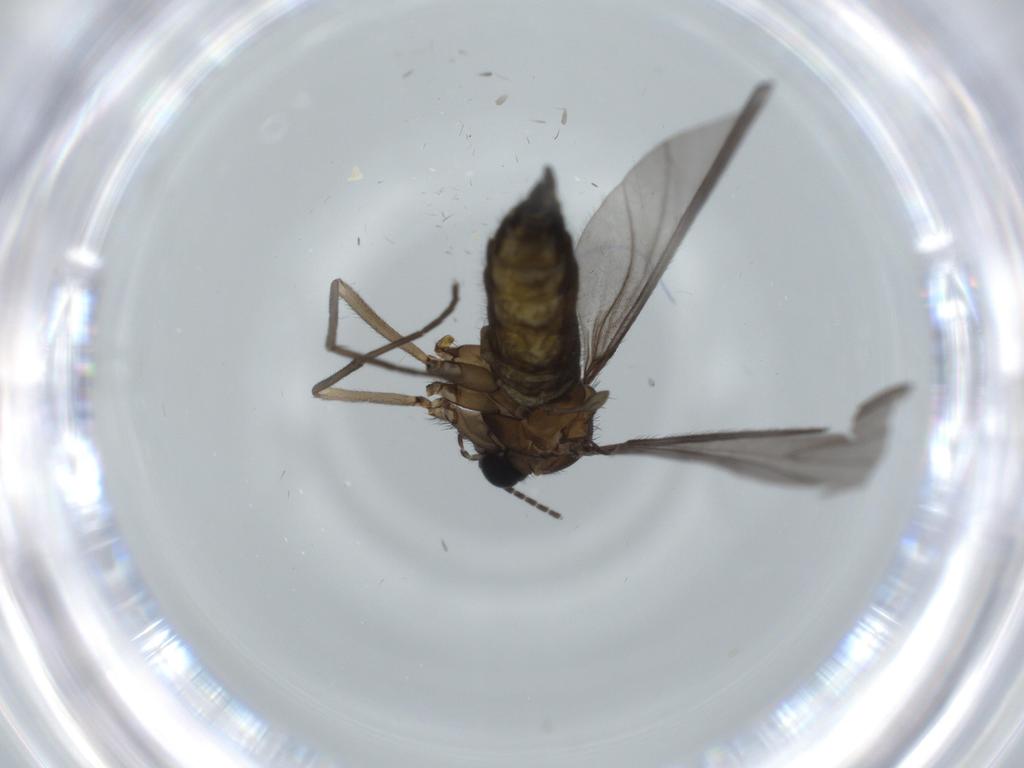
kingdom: Animalia
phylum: Arthropoda
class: Insecta
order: Diptera
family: Sciaridae
